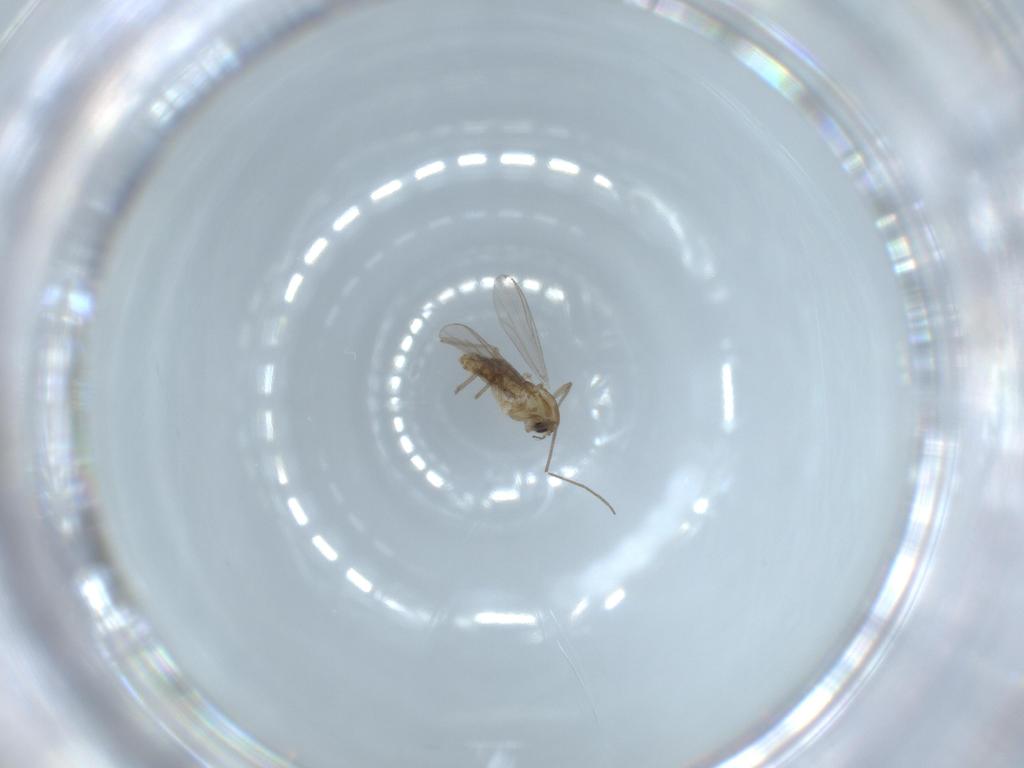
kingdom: Animalia
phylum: Arthropoda
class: Insecta
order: Diptera
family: Chironomidae
